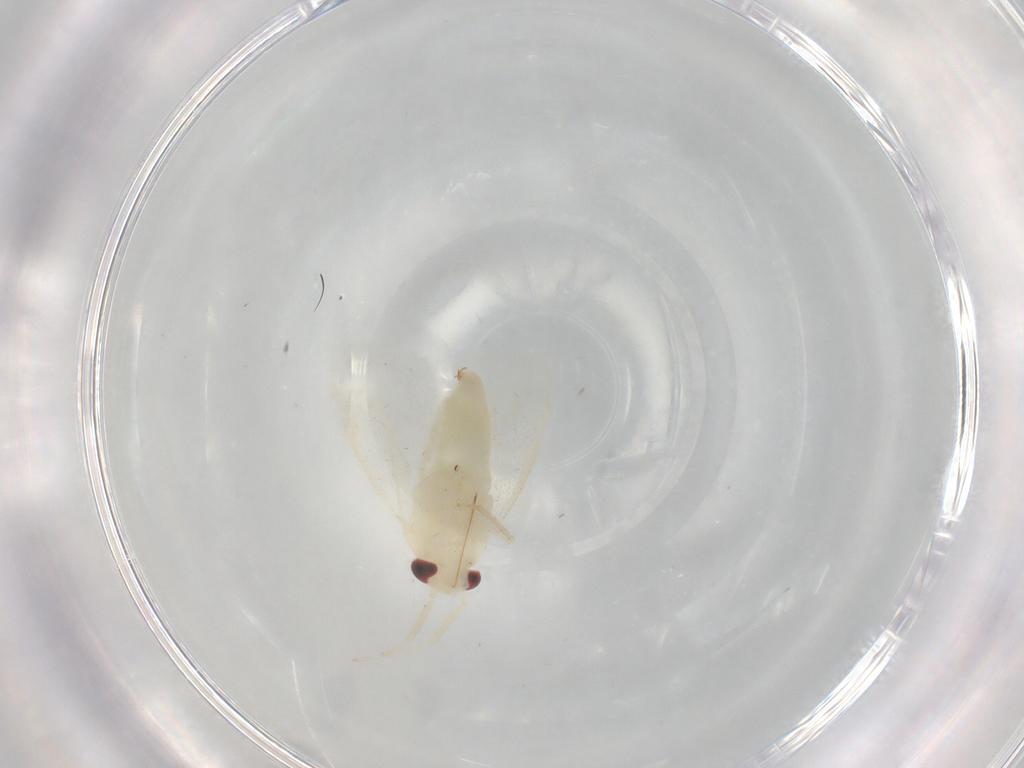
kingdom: Animalia
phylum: Arthropoda
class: Insecta
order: Hemiptera
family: Miridae
